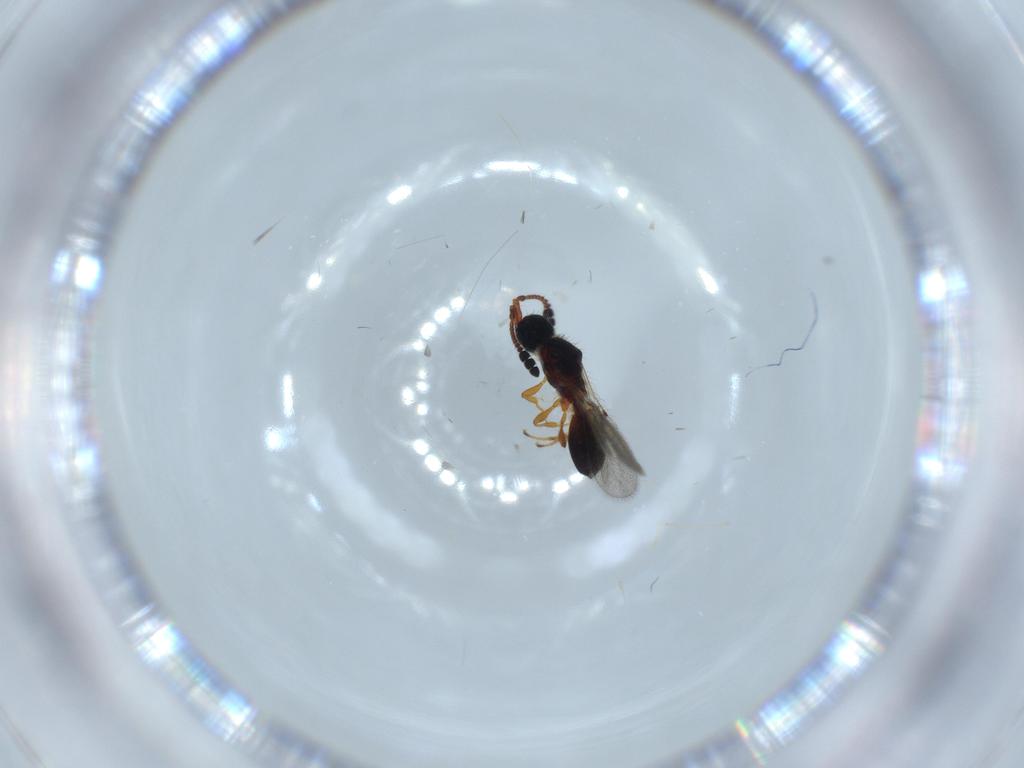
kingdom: Animalia
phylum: Arthropoda
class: Insecta
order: Hymenoptera
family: Diapriidae
